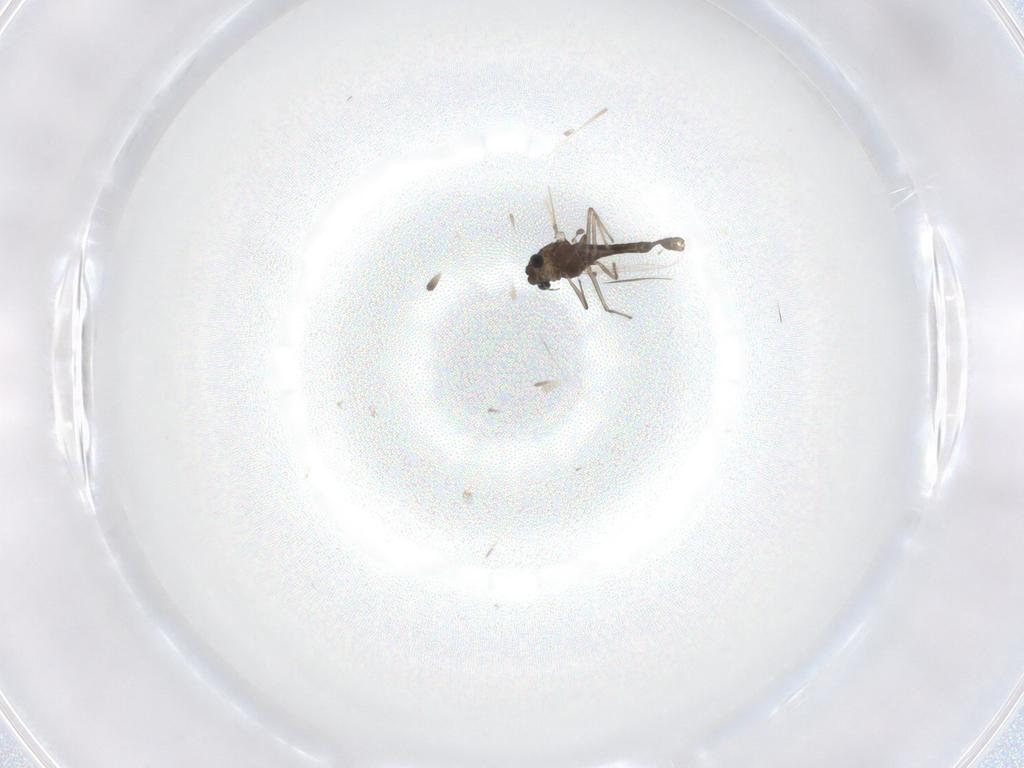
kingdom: Animalia
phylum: Arthropoda
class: Insecta
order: Diptera
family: Chironomidae
